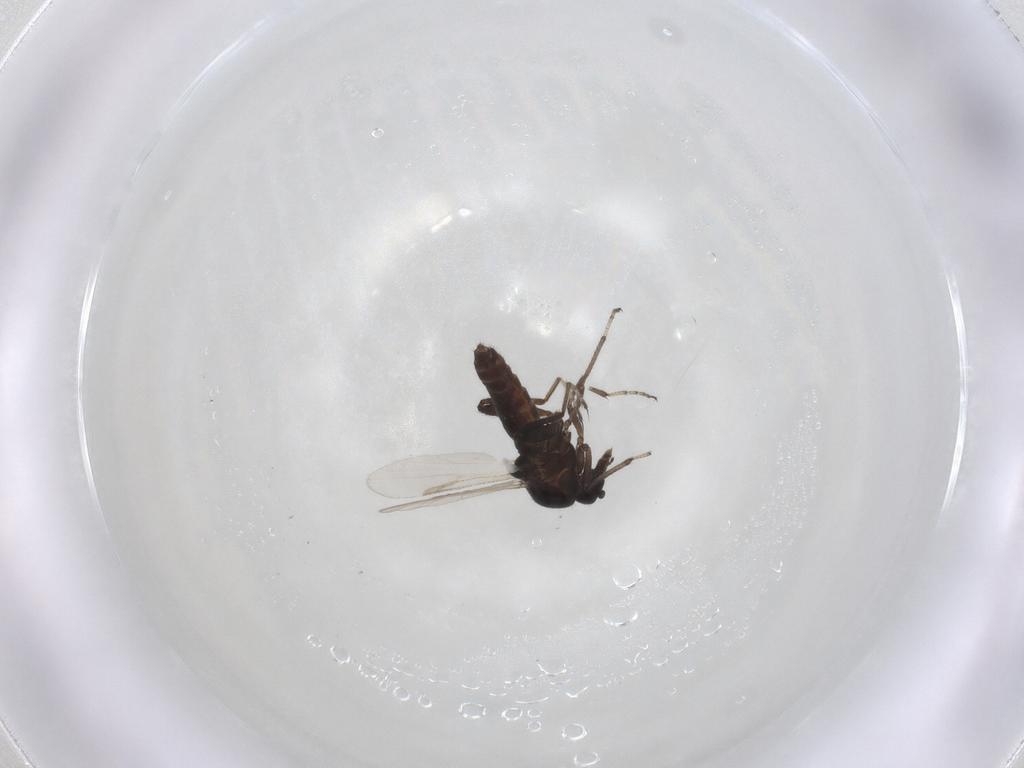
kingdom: Animalia
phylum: Arthropoda
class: Insecta
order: Diptera
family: Ceratopogonidae
